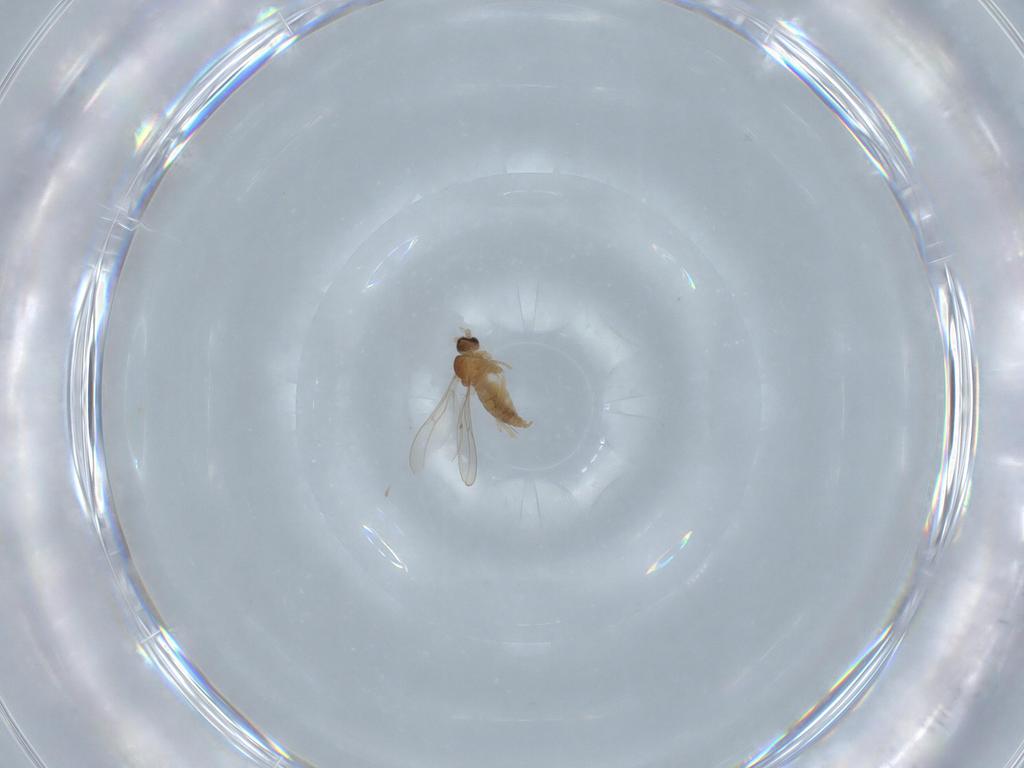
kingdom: Animalia
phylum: Arthropoda
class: Insecta
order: Diptera
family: Cecidomyiidae
